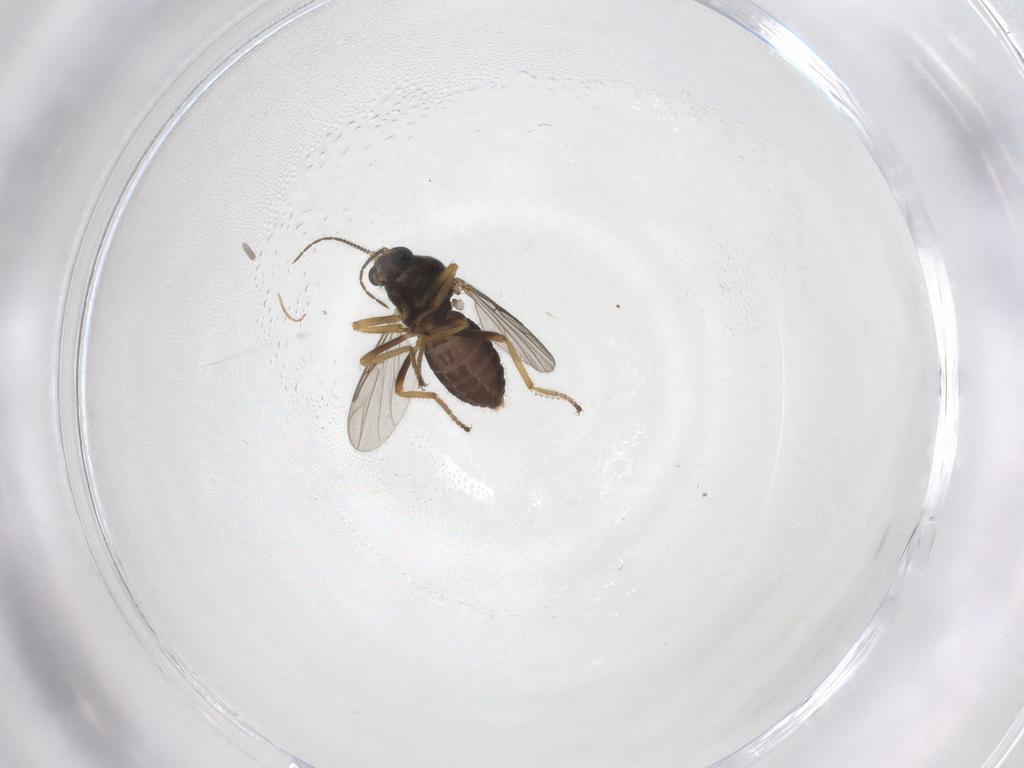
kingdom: Animalia
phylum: Arthropoda
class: Insecta
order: Diptera
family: Ceratopogonidae
